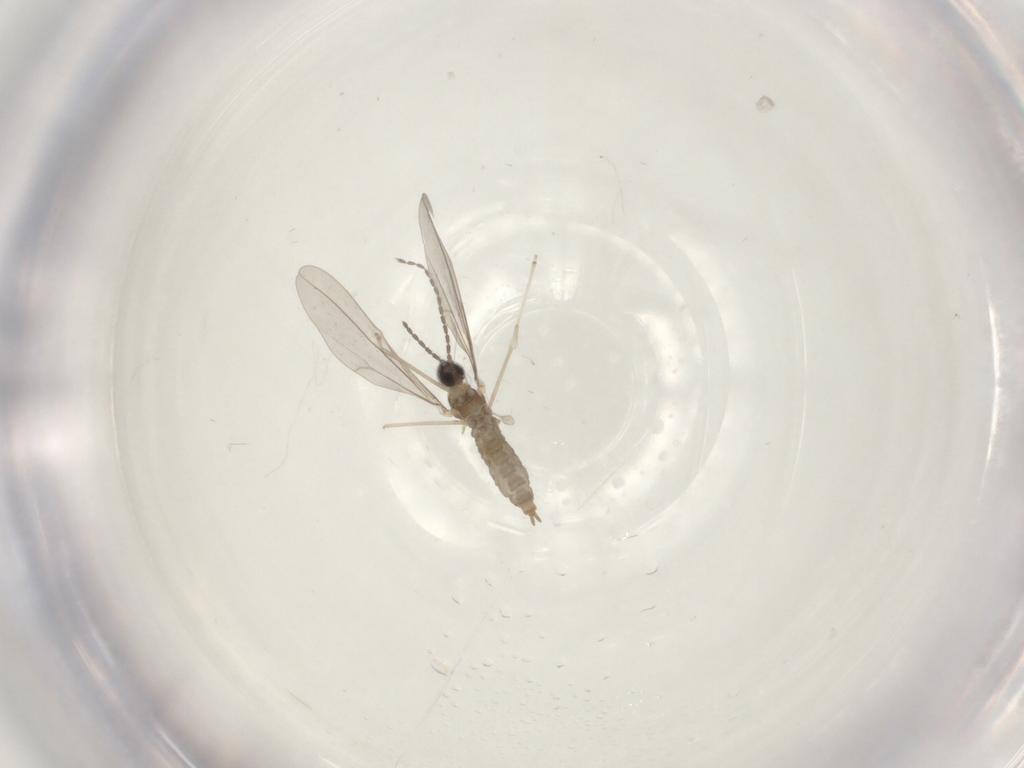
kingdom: Animalia
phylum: Arthropoda
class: Insecta
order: Diptera
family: Cecidomyiidae
